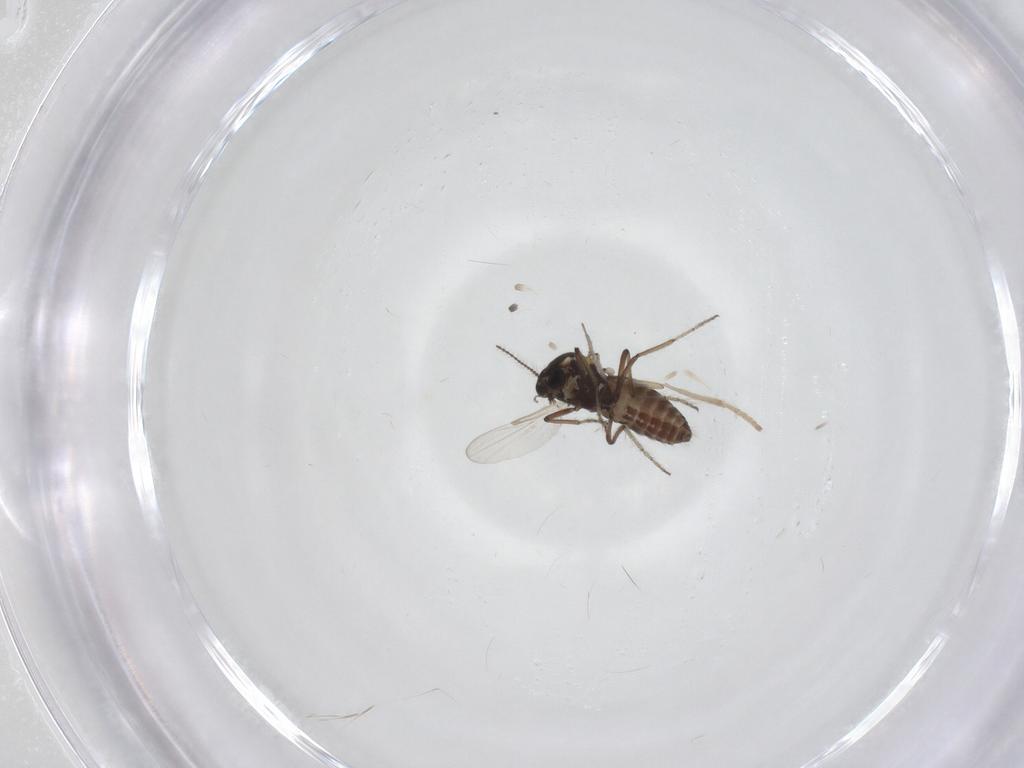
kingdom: Animalia
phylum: Arthropoda
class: Insecta
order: Diptera
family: Ceratopogonidae
